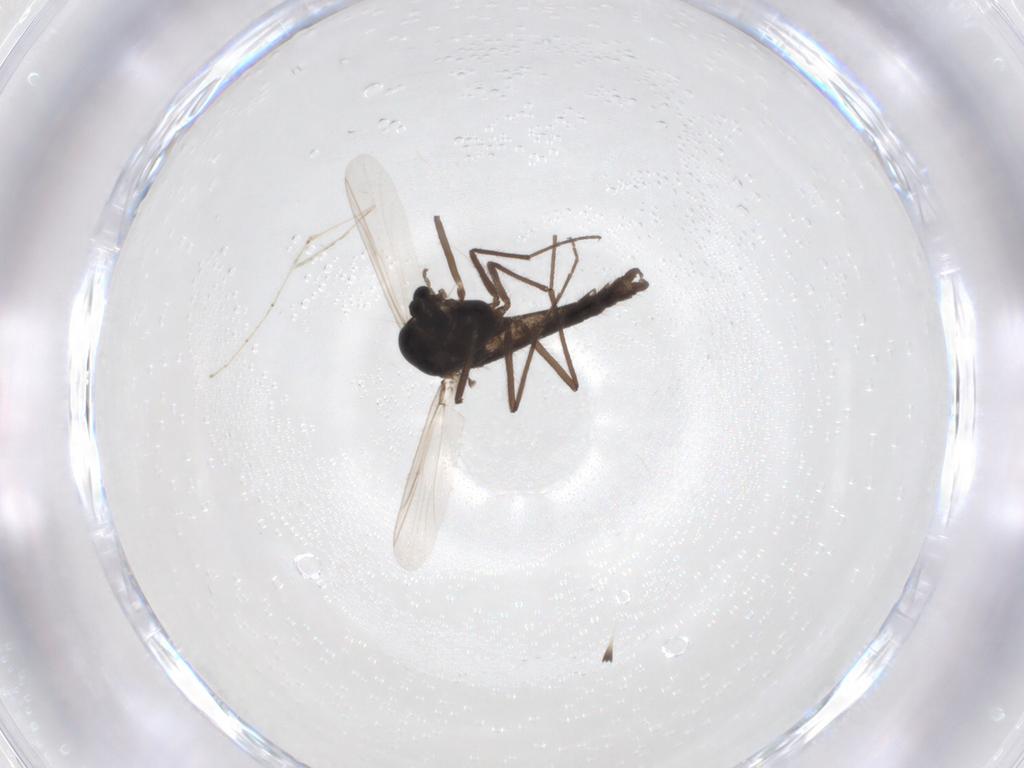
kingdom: Animalia
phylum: Arthropoda
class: Insecta
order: Diptera
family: Chironomidae
